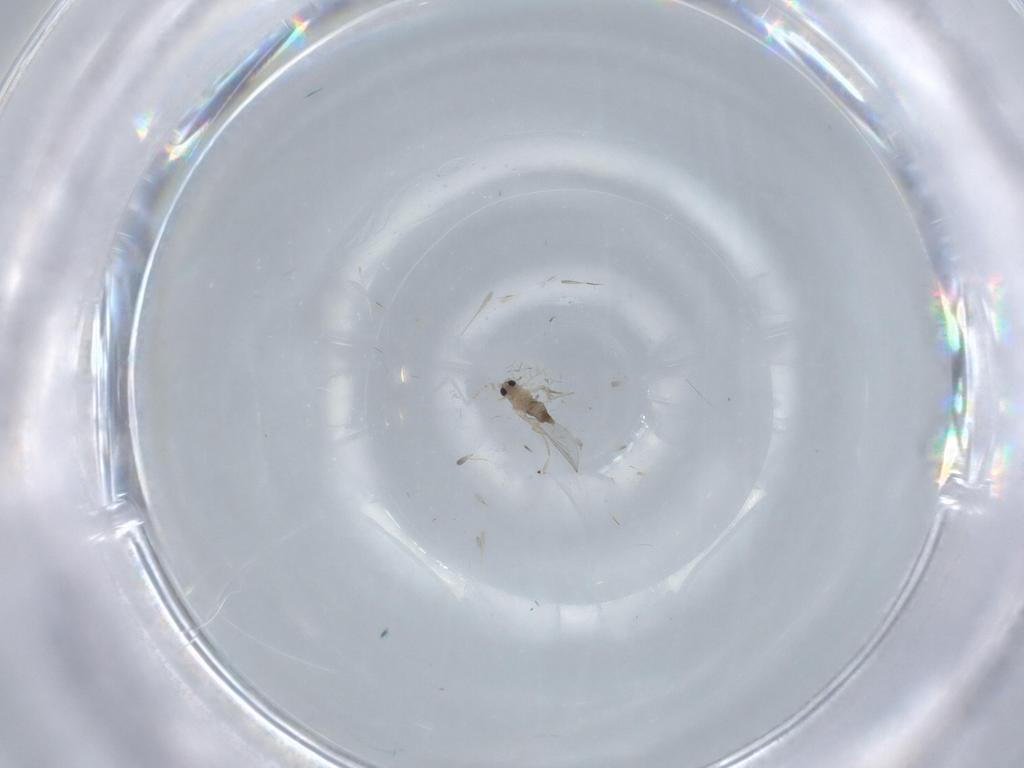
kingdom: Animalia
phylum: Arthropoda
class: Insecta
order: Diptera
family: Cecidomyiidae
